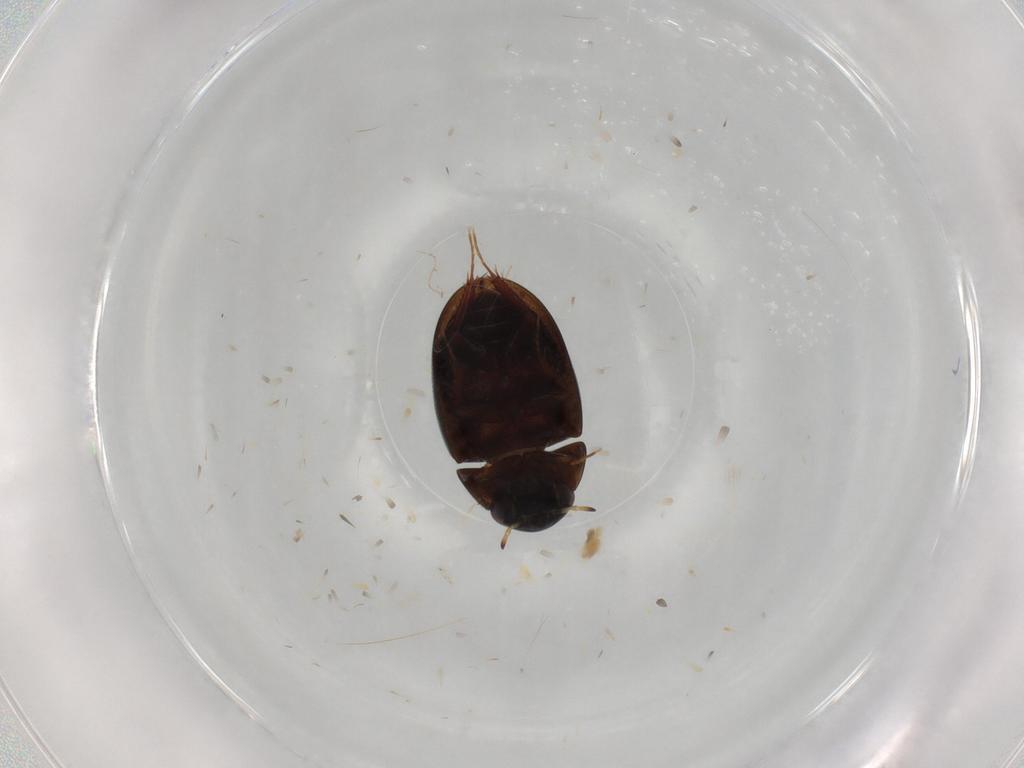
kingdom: Animalia
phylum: Arthropoda
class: Insecta
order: Coleoptera
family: Hydrophilidae
